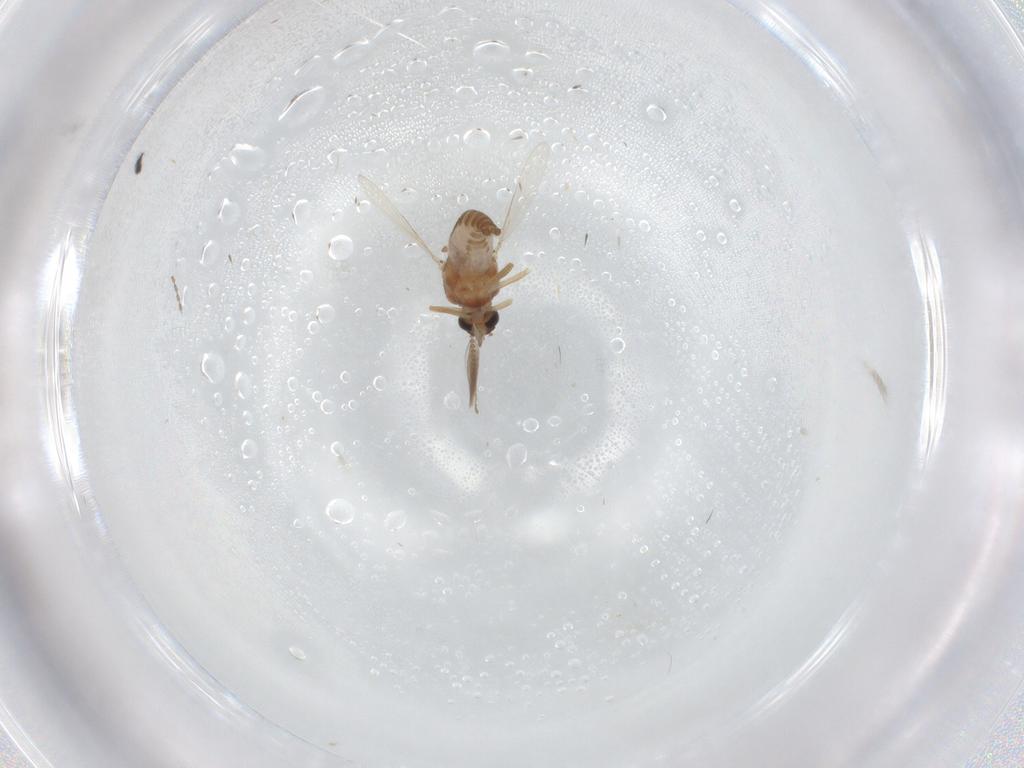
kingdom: Animalia
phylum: Arthropoda
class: Insecta
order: Diptera
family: Ceratopogonidae
